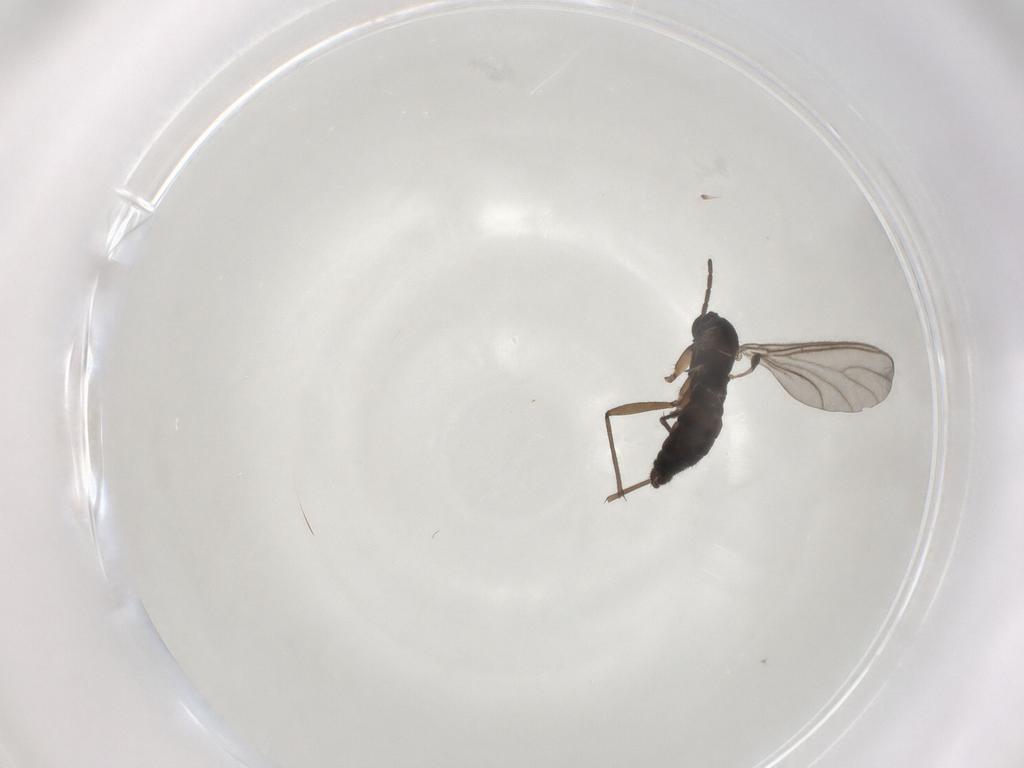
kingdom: Animalia
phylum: Arthropoda
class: Insecta
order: Diptera
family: Sciaridae
